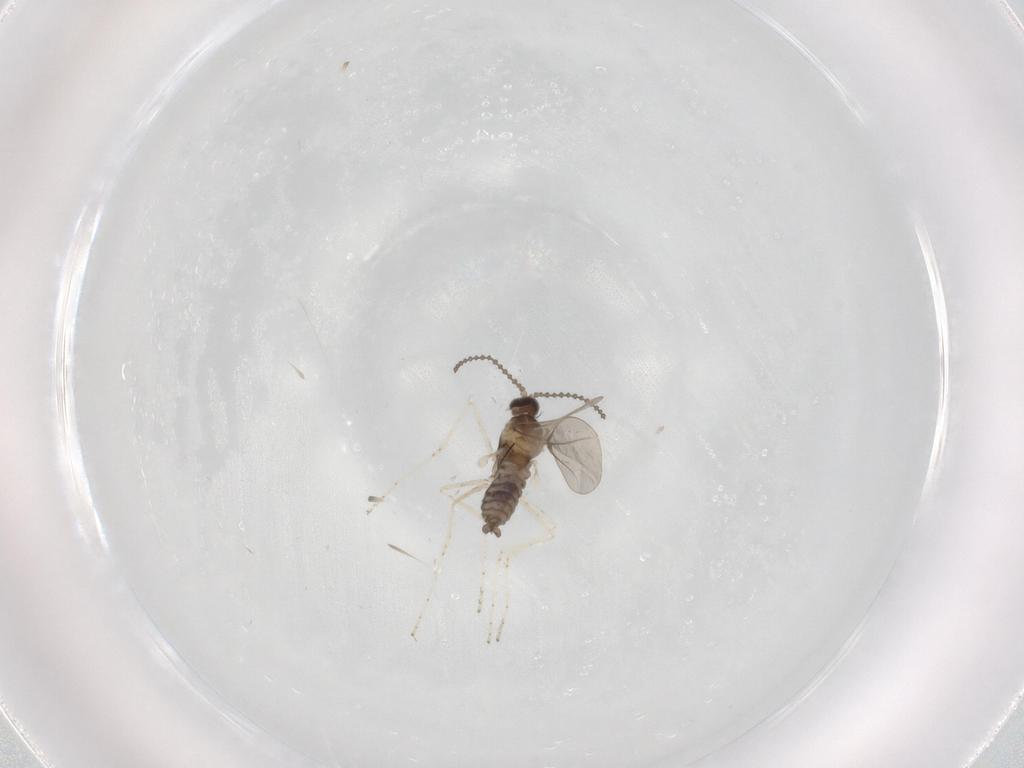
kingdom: Animalia
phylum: Arthropoda
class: Insecta
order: Diptera
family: Cecidomyiidae
